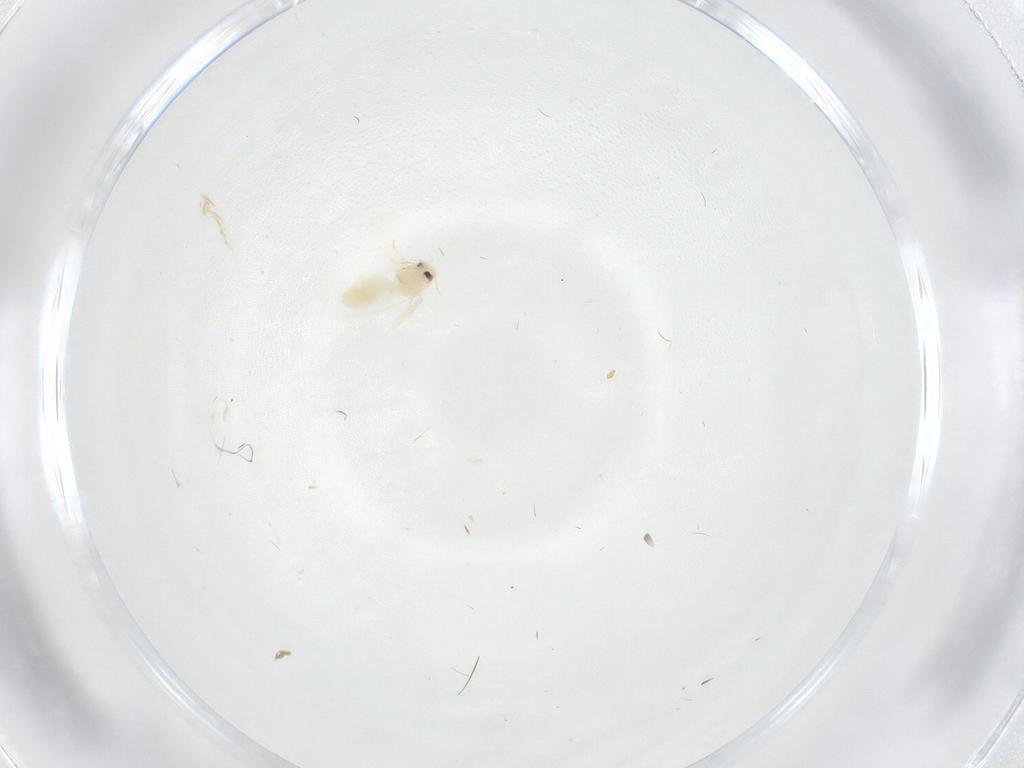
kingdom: Animalia
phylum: Arthropoda
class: Insecta
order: Hemiptera
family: Aleyrodidae
